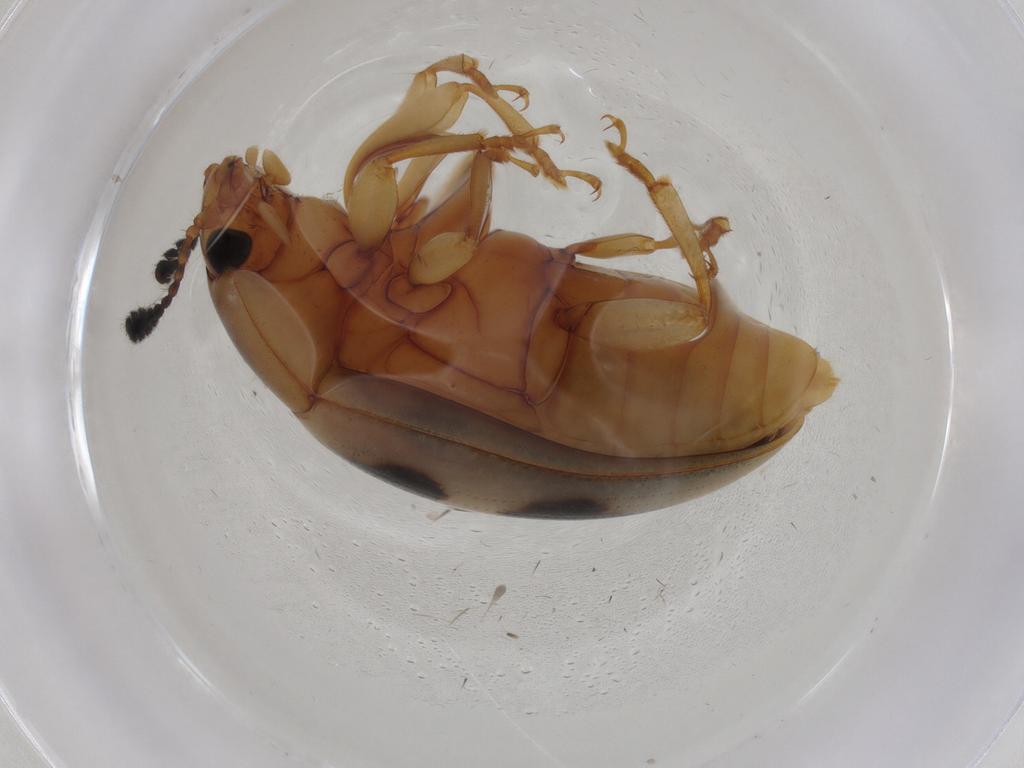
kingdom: Animalia
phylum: Arthropoda
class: Insecta
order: Coleoptera
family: Erotylidae
